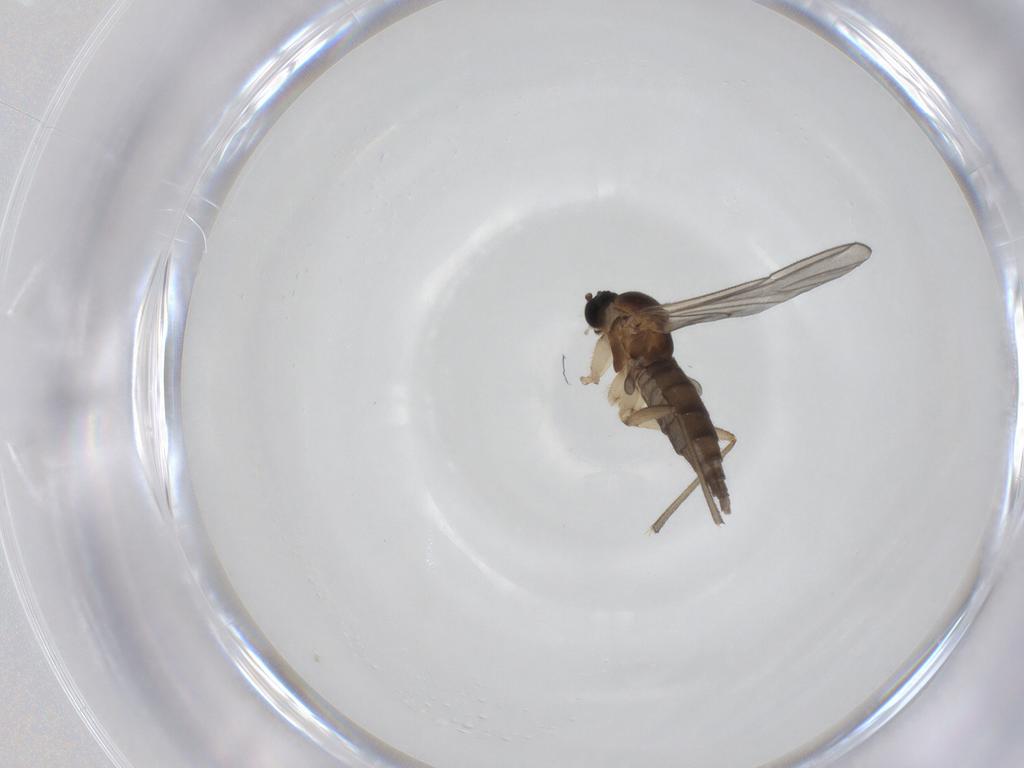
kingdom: Animalia
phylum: Arthropoda
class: Insecta
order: Diptera
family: Sciaridae
